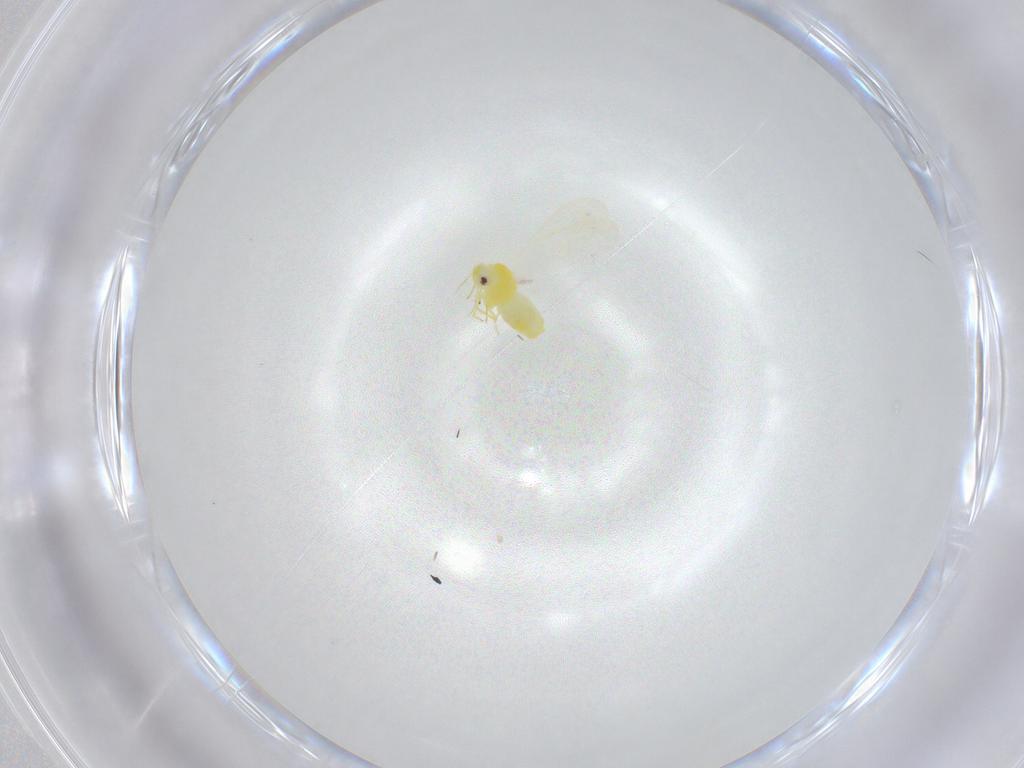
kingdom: Animalia
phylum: Arthropoda
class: Insecta
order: Hemiptera
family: Aleyrodidae
